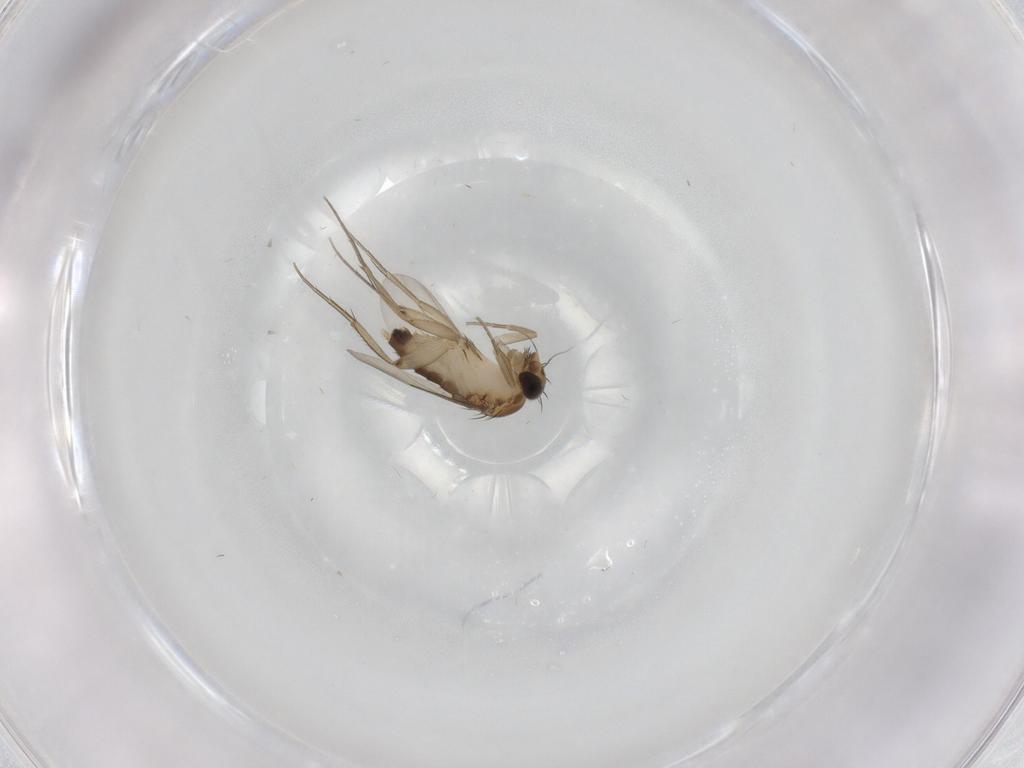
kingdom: Animalia
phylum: Arthropoda
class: Insecta
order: Diptera
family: Phoridae
